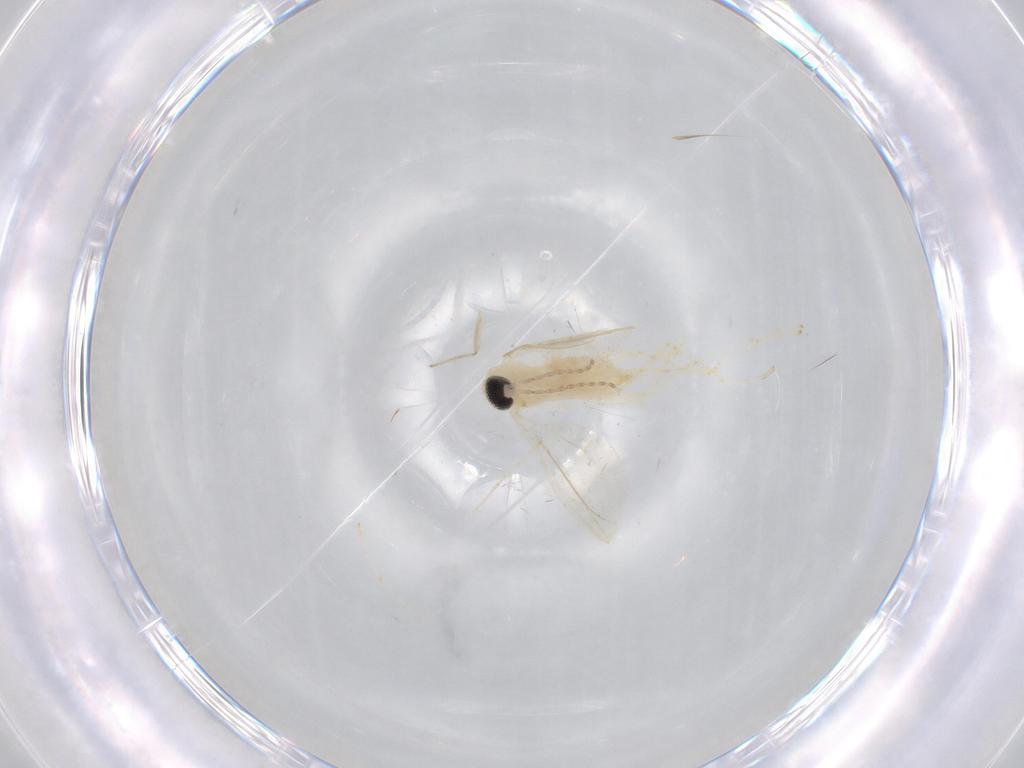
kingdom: Animalia
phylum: Arthropoda
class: Insecta
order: Diptera
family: Cecidomyiidae
